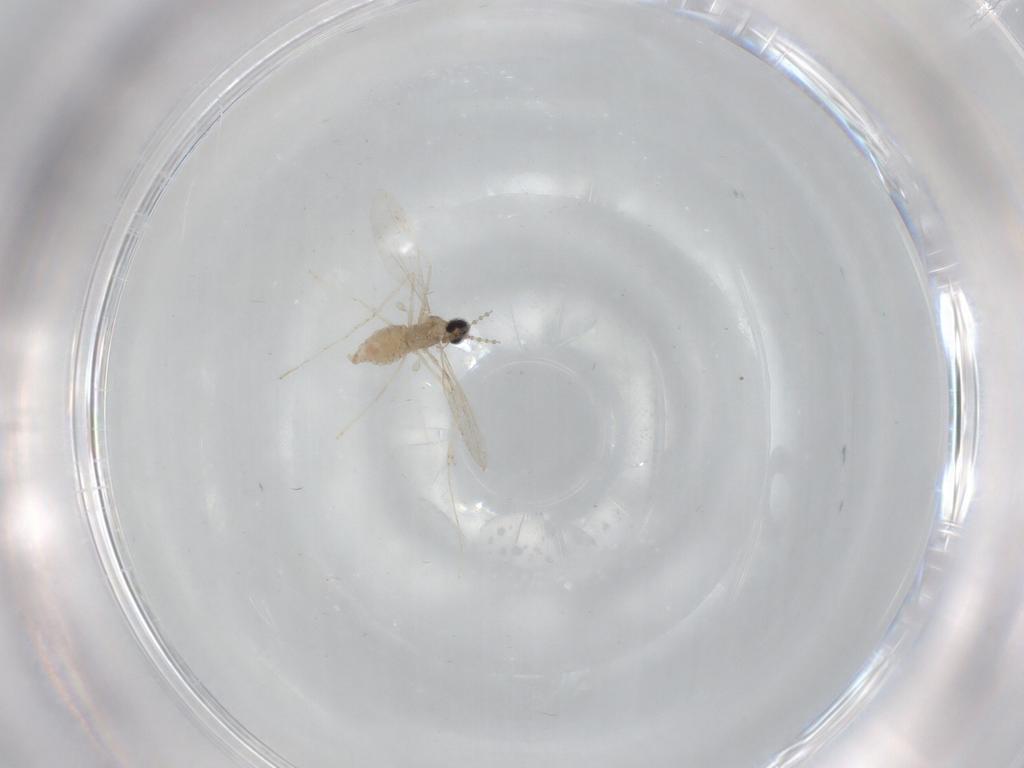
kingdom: Animalia
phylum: Arthropoda
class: Insecta
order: Diptera
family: Cecidomyiidae
